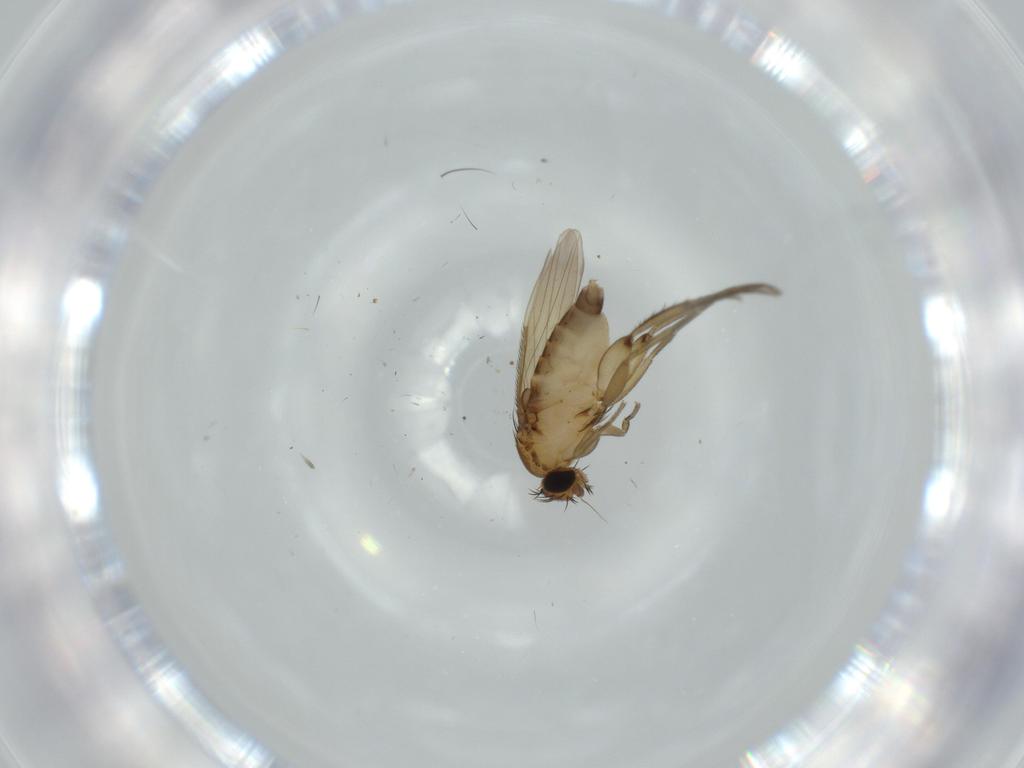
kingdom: Animalia
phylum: Arthropoda
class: Insecta
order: Diptera
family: Phoridae
